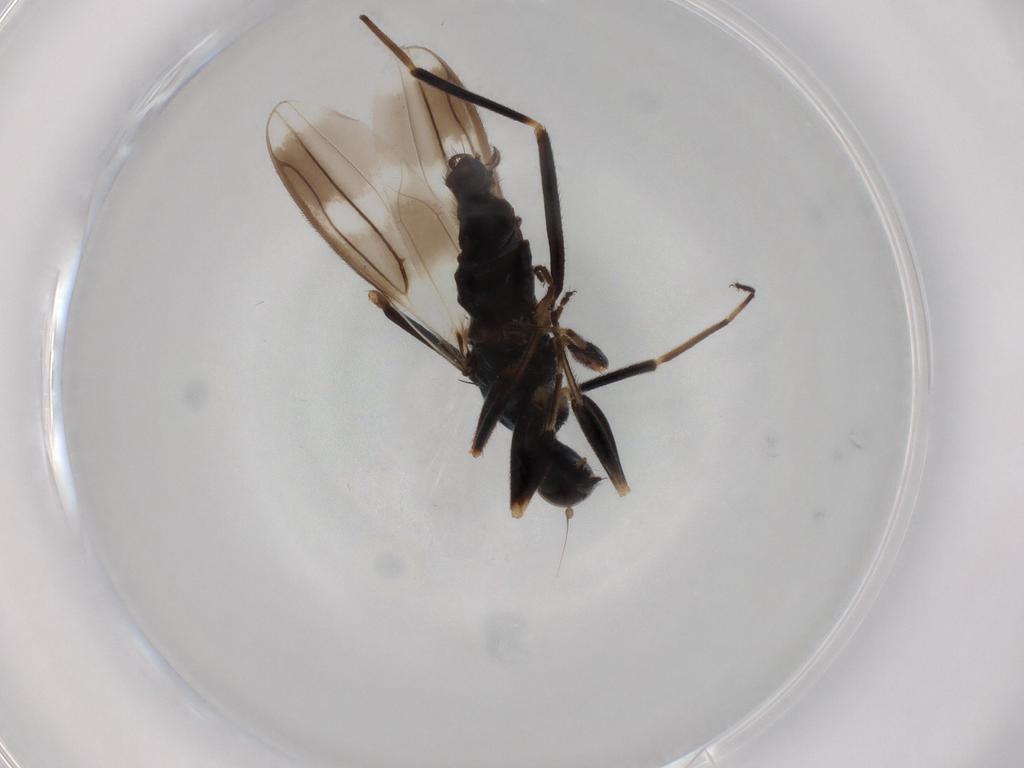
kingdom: Animalia
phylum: Arthropoda
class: Insecta
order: Diptera
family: Hybotidae
